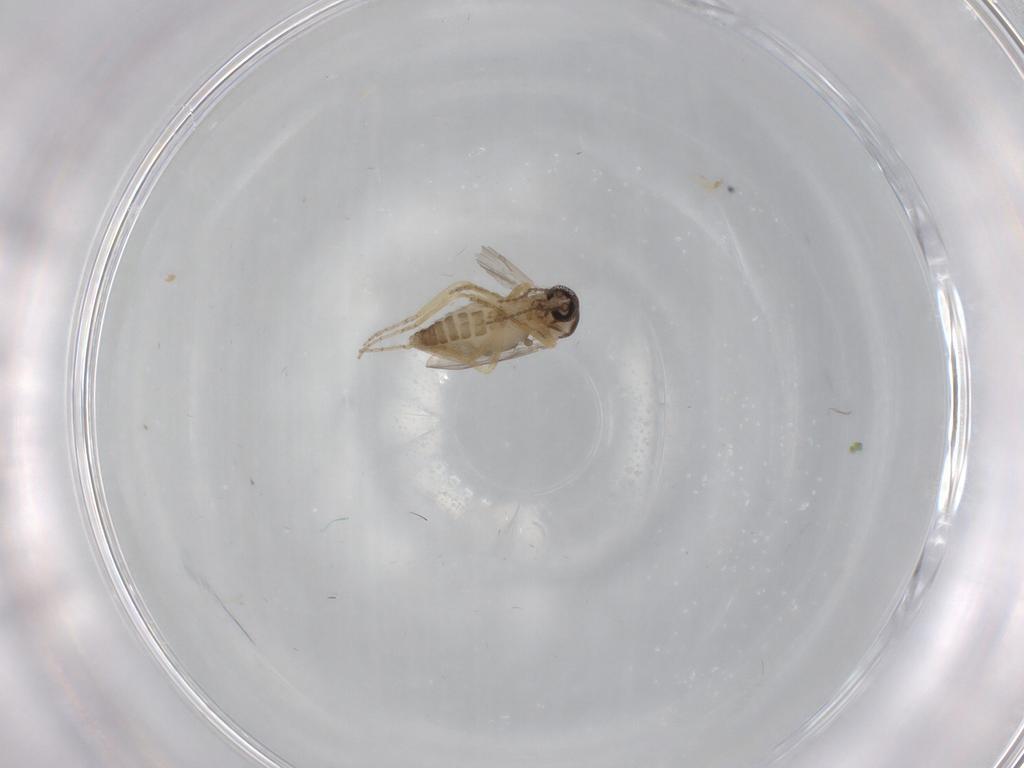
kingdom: Animalia
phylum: Arthropoda
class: Insecta
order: Diptera
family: Ceratopogonidae
